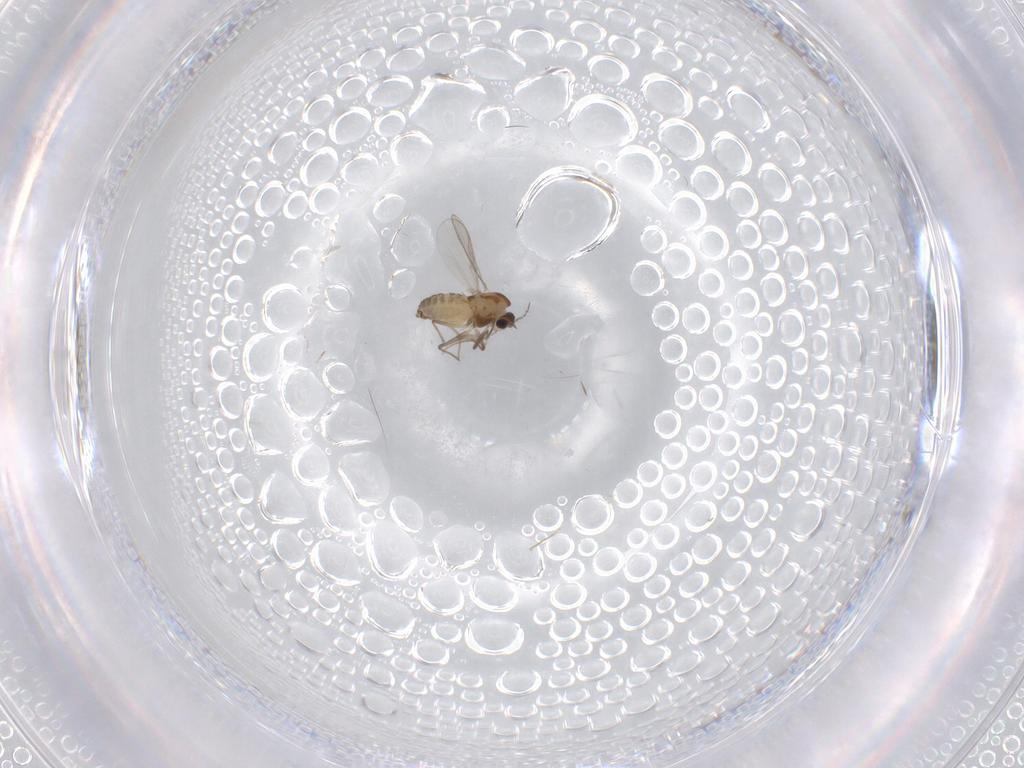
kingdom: Animalia
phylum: Arthropoda
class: Insecta
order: Diptera
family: Chironomidae
